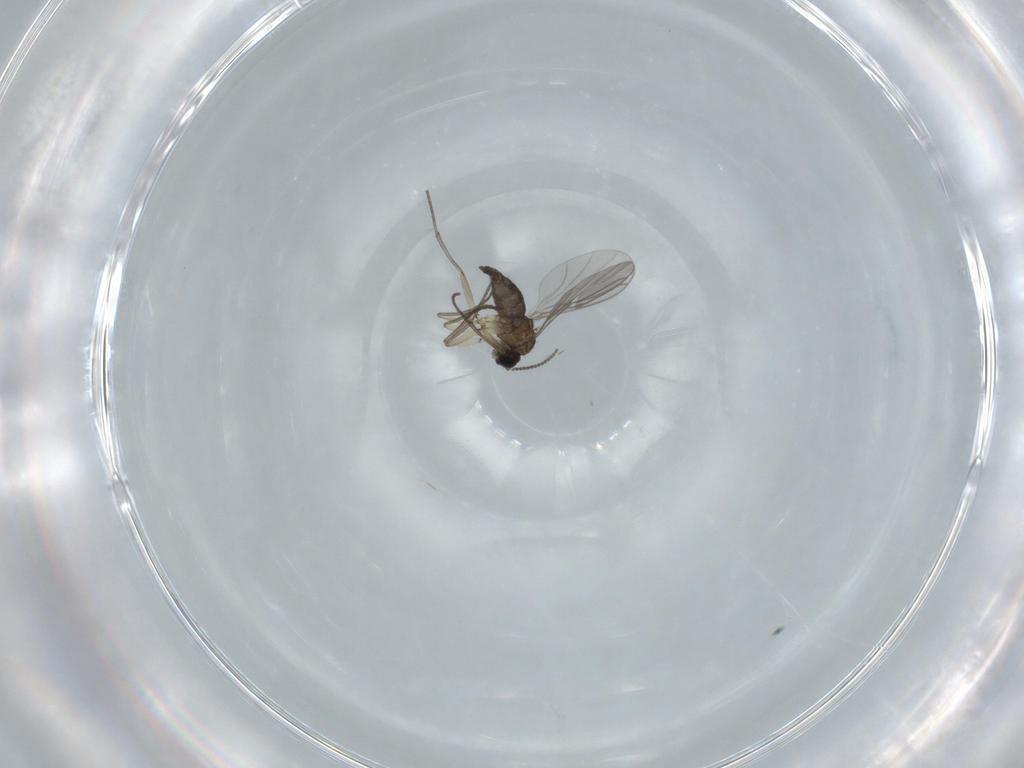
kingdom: Animalia
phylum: Arthropoda
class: Insecta
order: Diptera
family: Sciaridae
